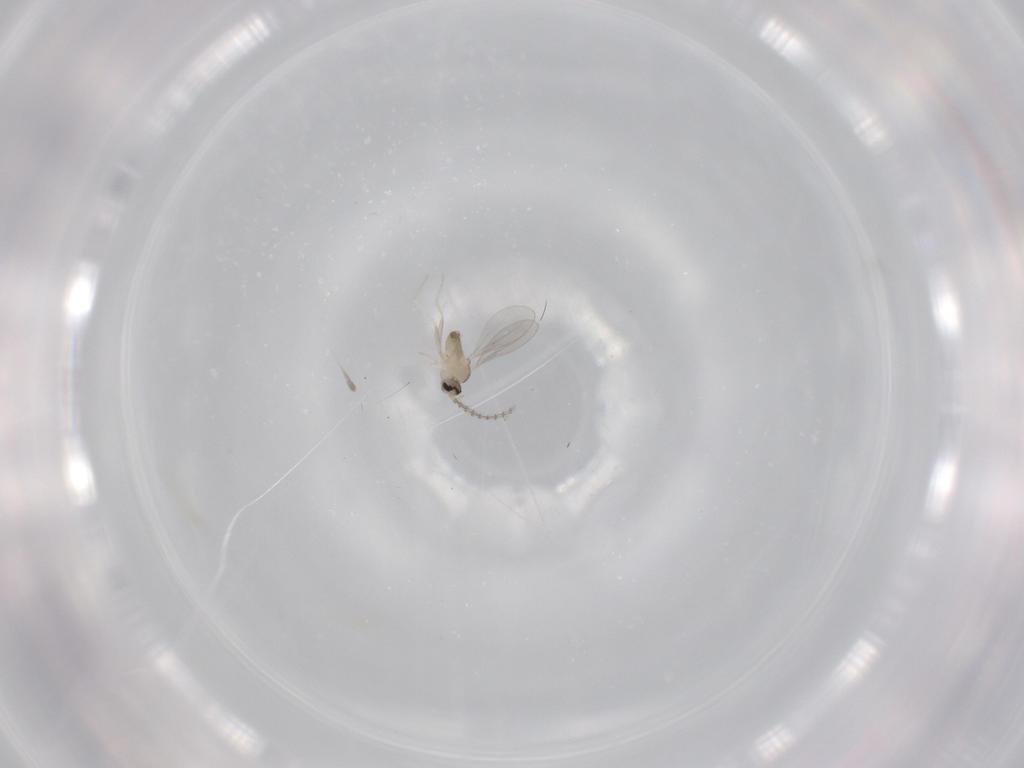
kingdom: Animalia
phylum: Arthropoda
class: Insecta
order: Diptera
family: Cecidomyiidae
